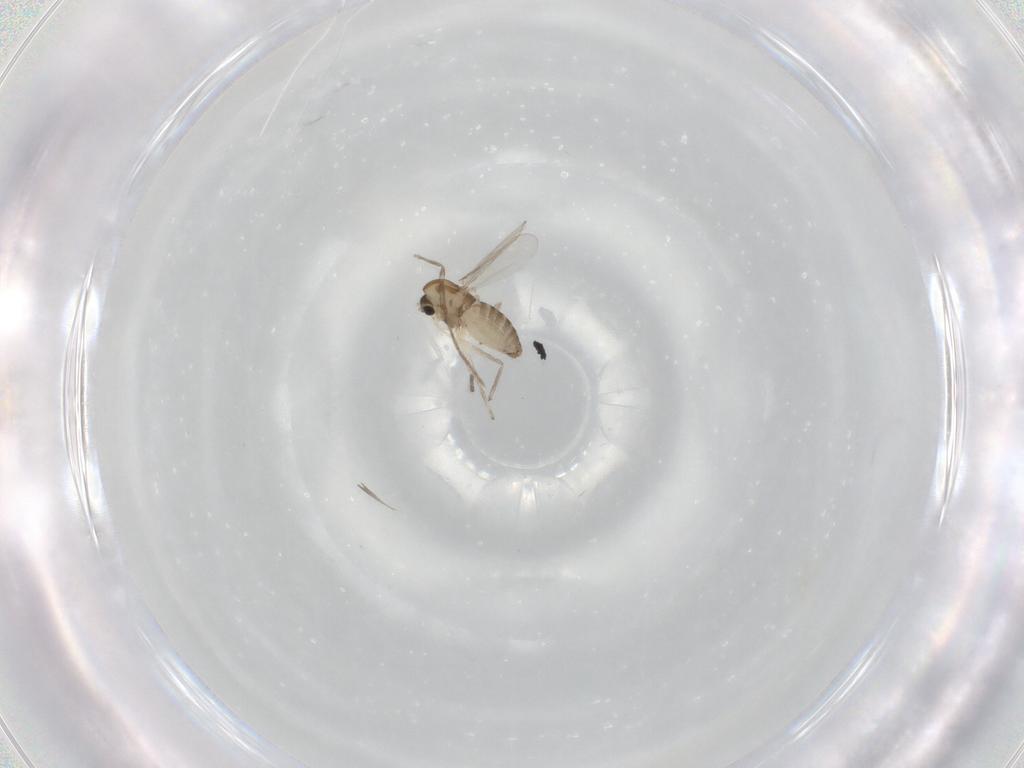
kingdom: Animalia
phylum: Arthropoda
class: Insecta
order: Diptera
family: Chironomidae
